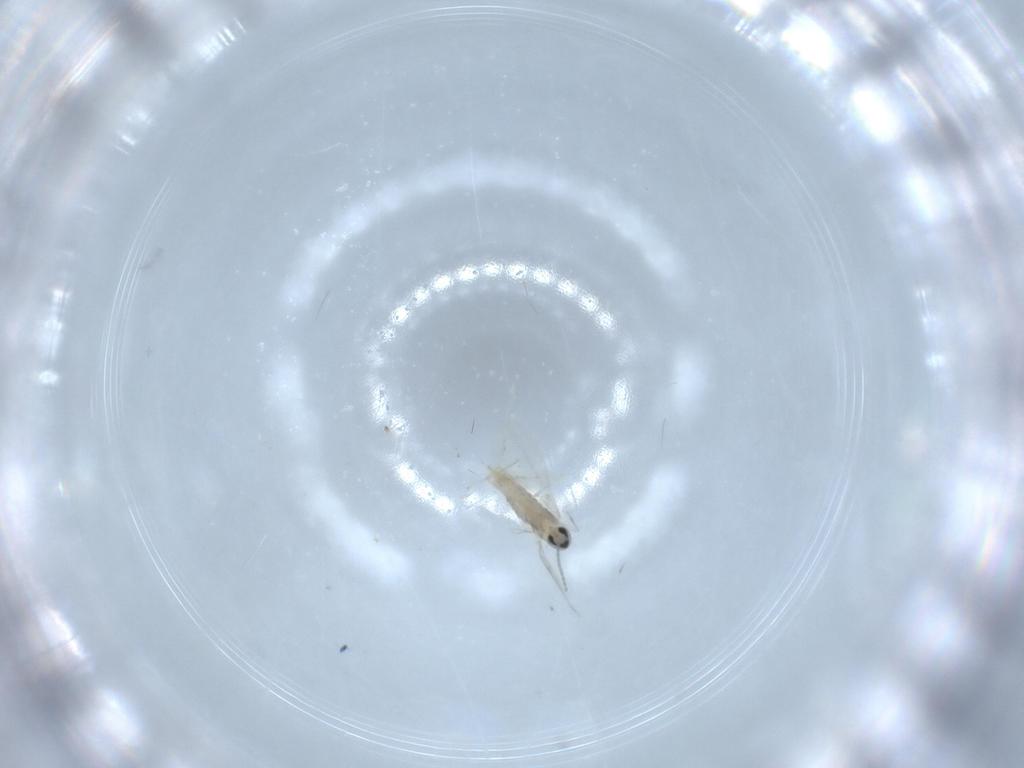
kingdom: Animalia
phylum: Arthropoda
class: Insecta
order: Diptera
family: Cecidomyiidae
